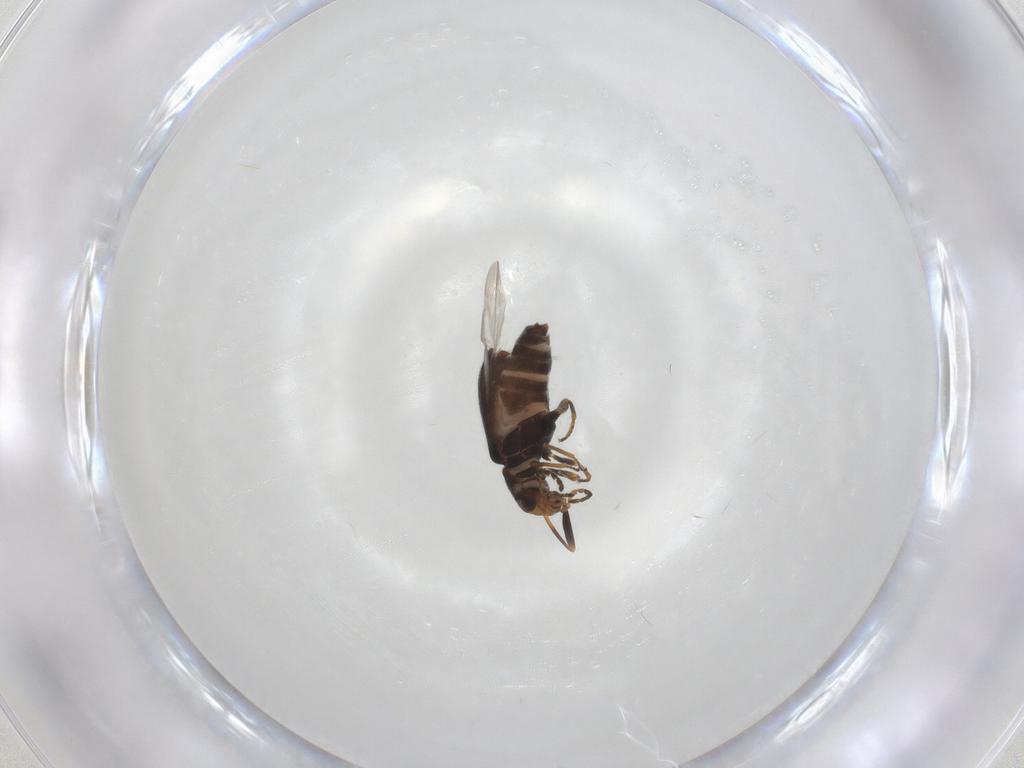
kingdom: Animalia
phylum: Arthropoda
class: Insecta
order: Coleoptera
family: Melyridae
